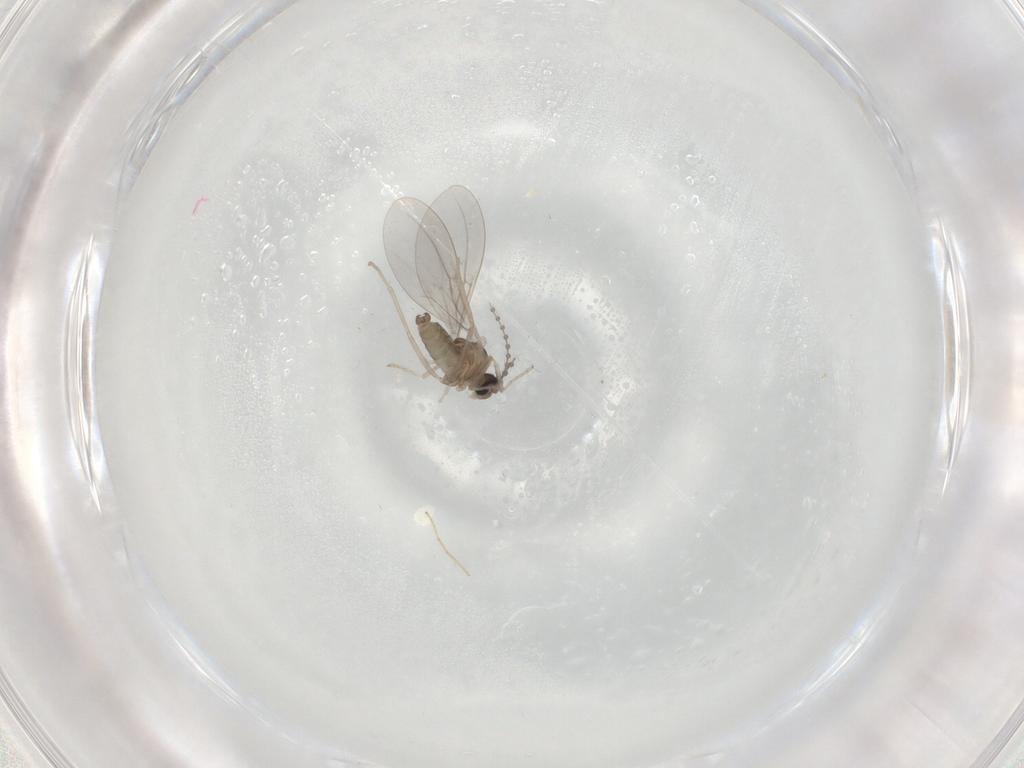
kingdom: Animalia
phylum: Arthropoda
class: Insecta
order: Diptera
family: Cecidomyiidae
